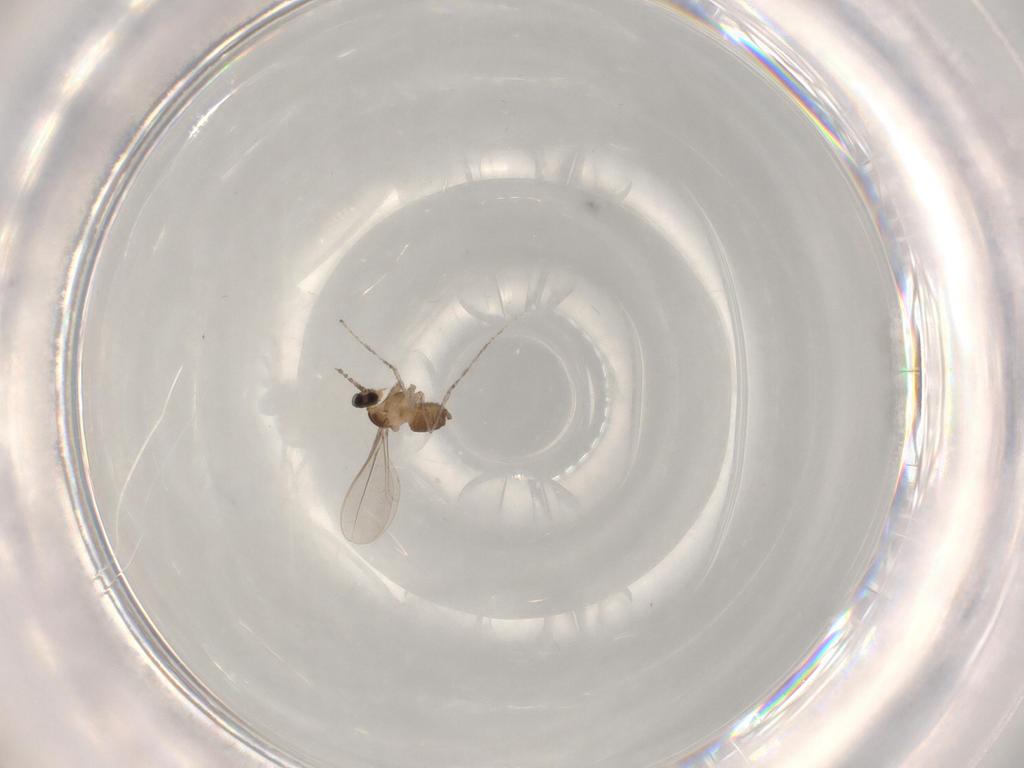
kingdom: Animalia
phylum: Arthropoda
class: Insecta
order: Diptera
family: Sciaridae
